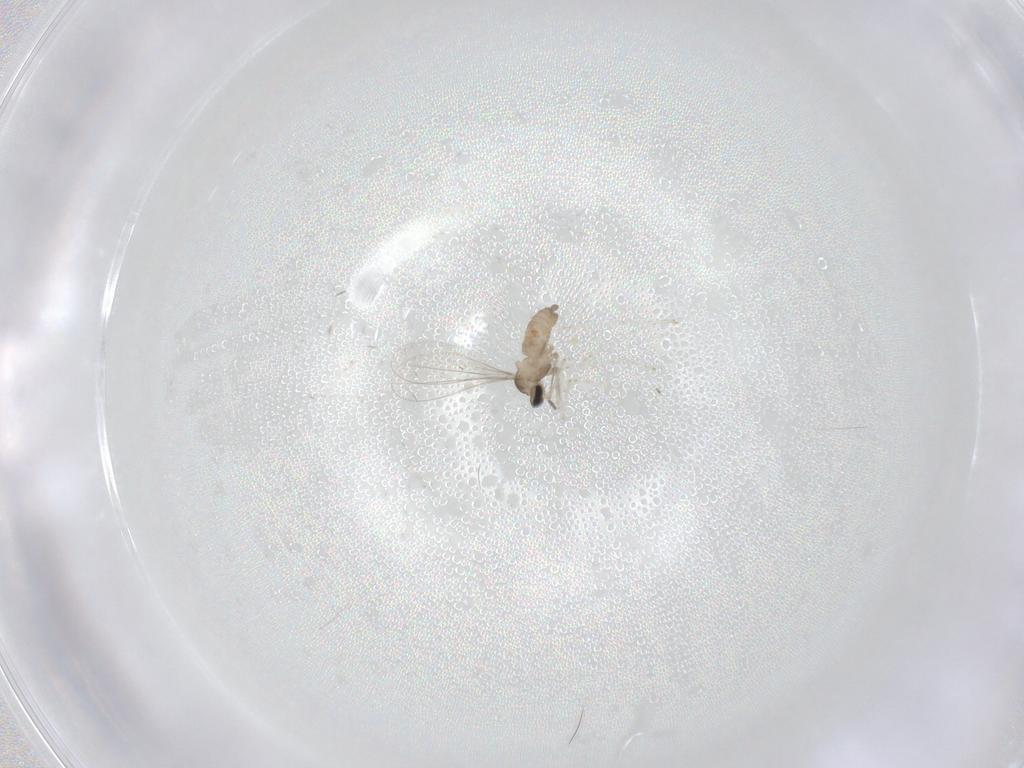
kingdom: Animalia
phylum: Arthropoda
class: Insecta
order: Diptera
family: Cecidomyiidae
